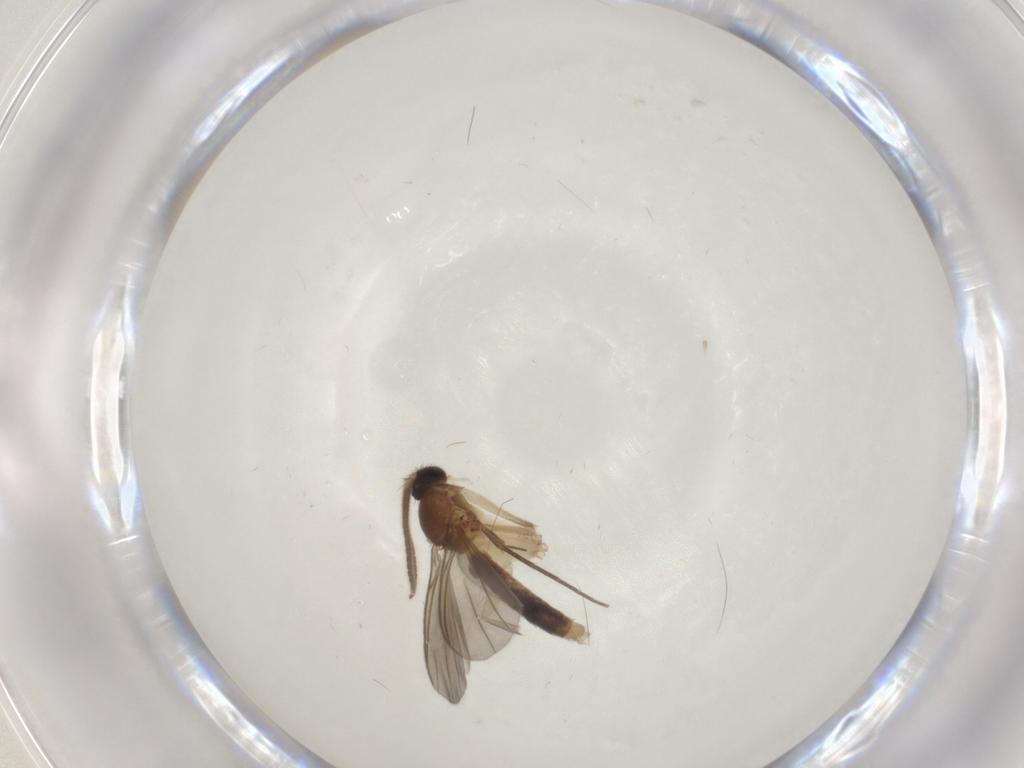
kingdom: Animalia
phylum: Arthropoda
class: Insecta
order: Diptera
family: Mycetophilidae
